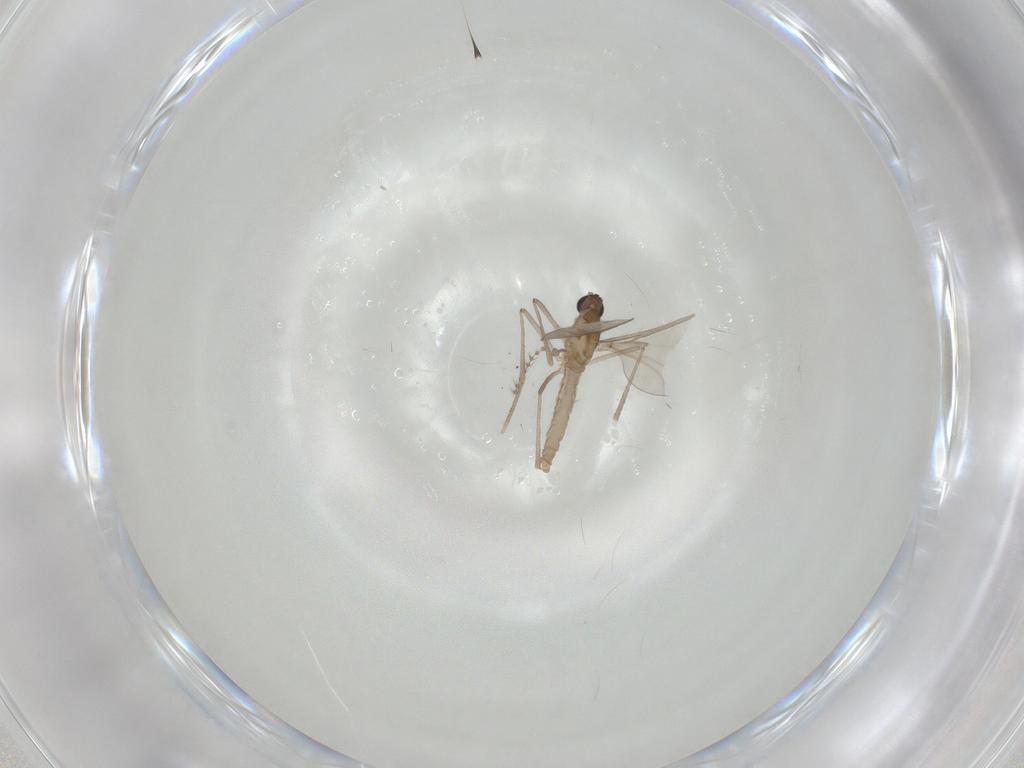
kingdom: Animalia
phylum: Arthropoda
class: Insecta
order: Diptera
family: Cecidomyiidae
